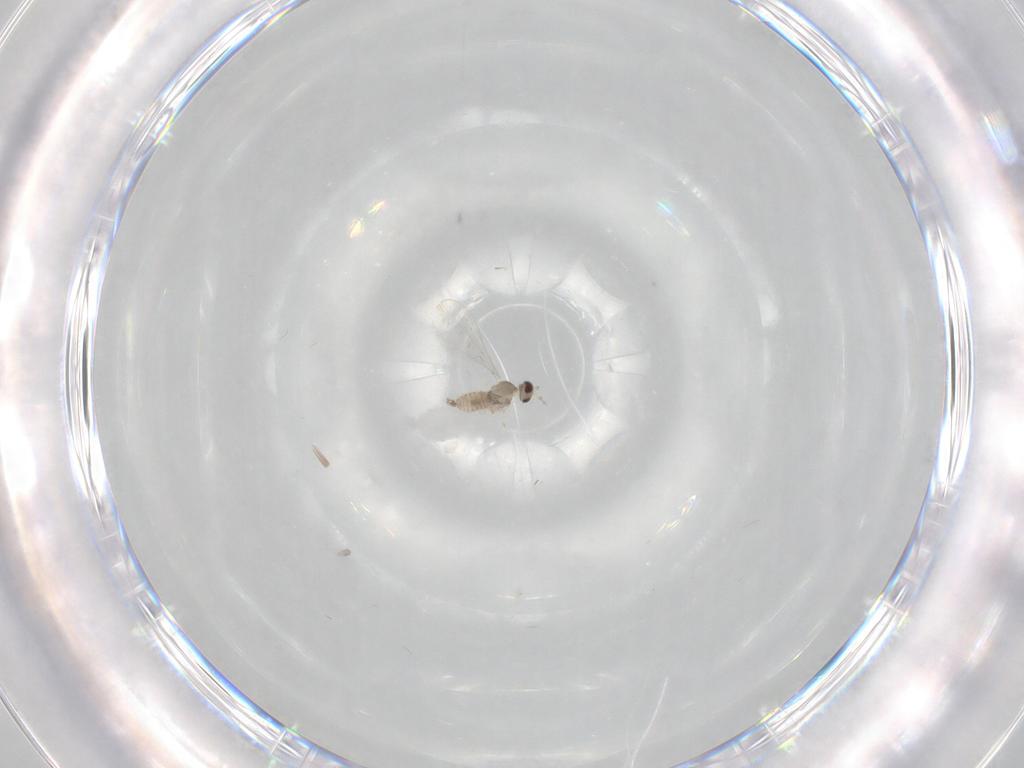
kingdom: Animalia
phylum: Arthropoda
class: Insecta
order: Diptera
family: Cecidomyiidae
